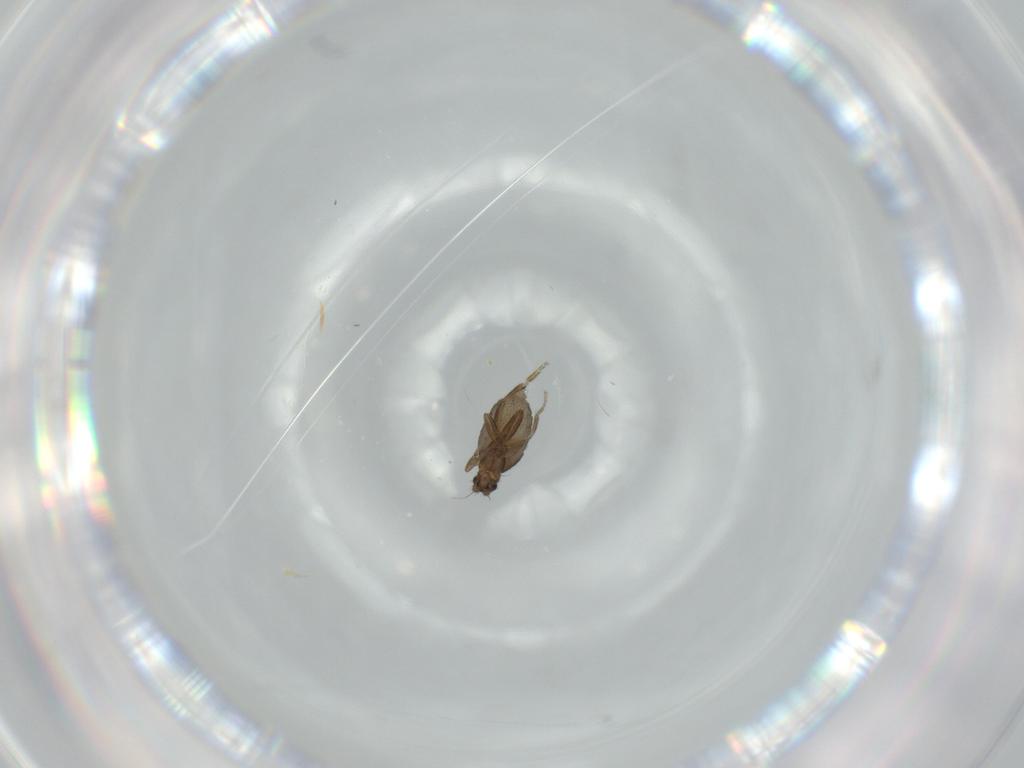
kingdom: Animalia
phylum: Arthropoda
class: Insecta
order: Diptera
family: Phoridae
